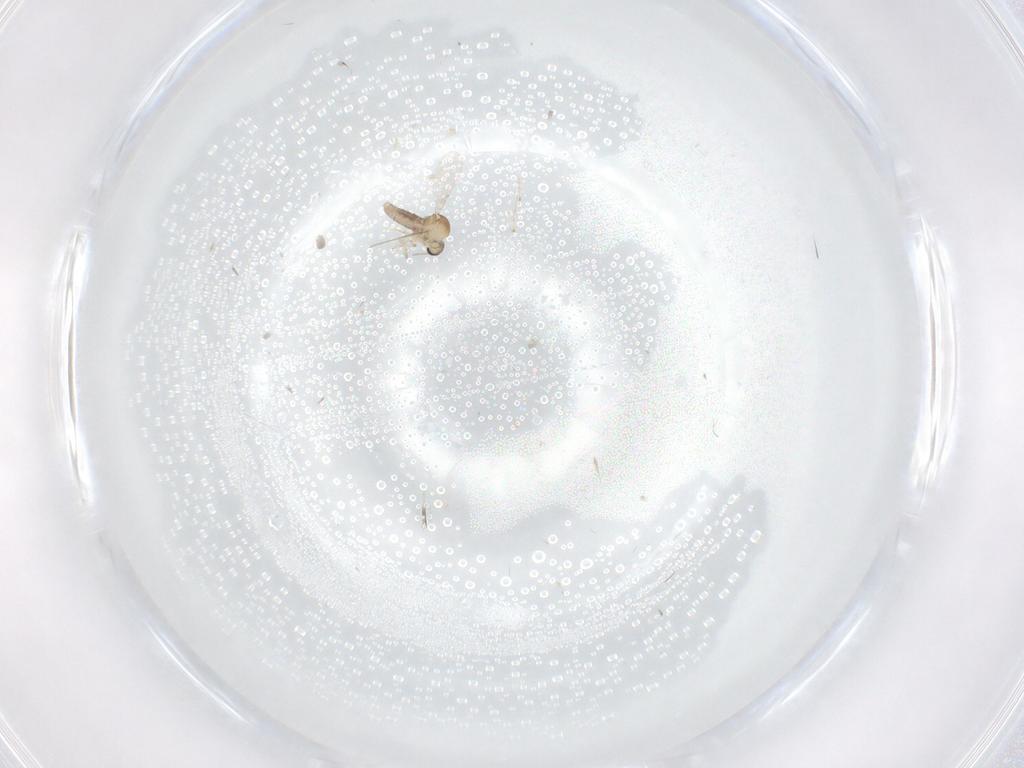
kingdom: Animalia
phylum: Arthropoda
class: Insecta
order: Diptera
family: Ceratopogonidae
